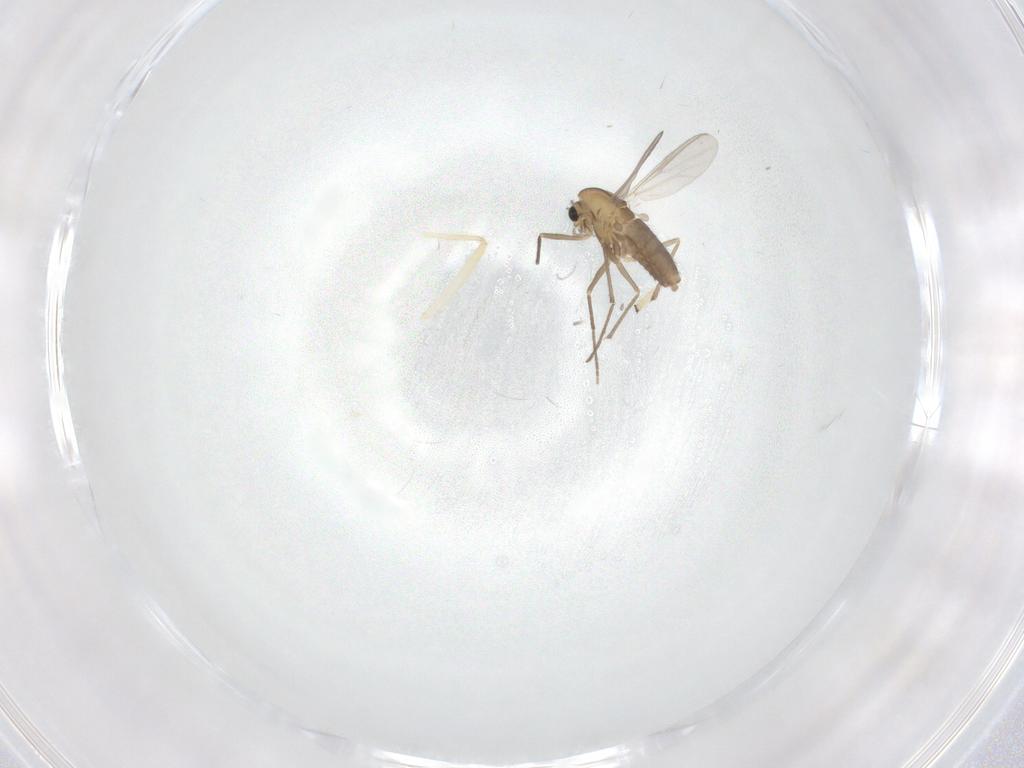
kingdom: Animalia
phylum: Arthropoda
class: Insecta
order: Diptera
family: Chironomidae
